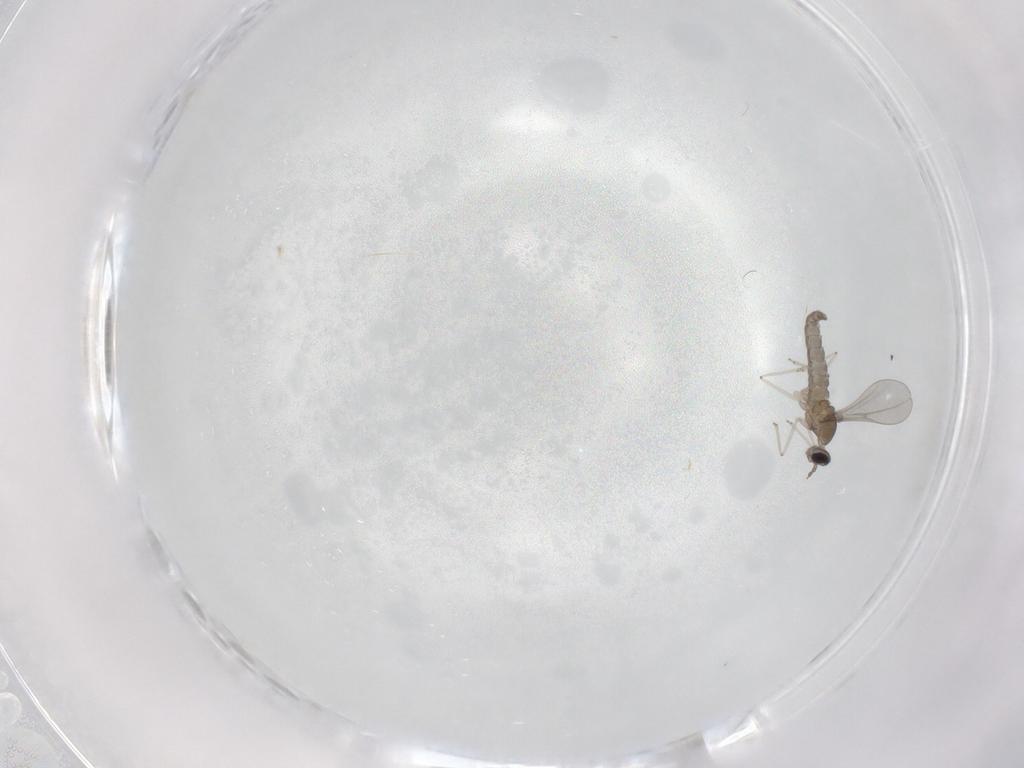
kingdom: Animalia
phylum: Arthropoda
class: Insecta
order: Diptera
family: Cecidomyiidae
